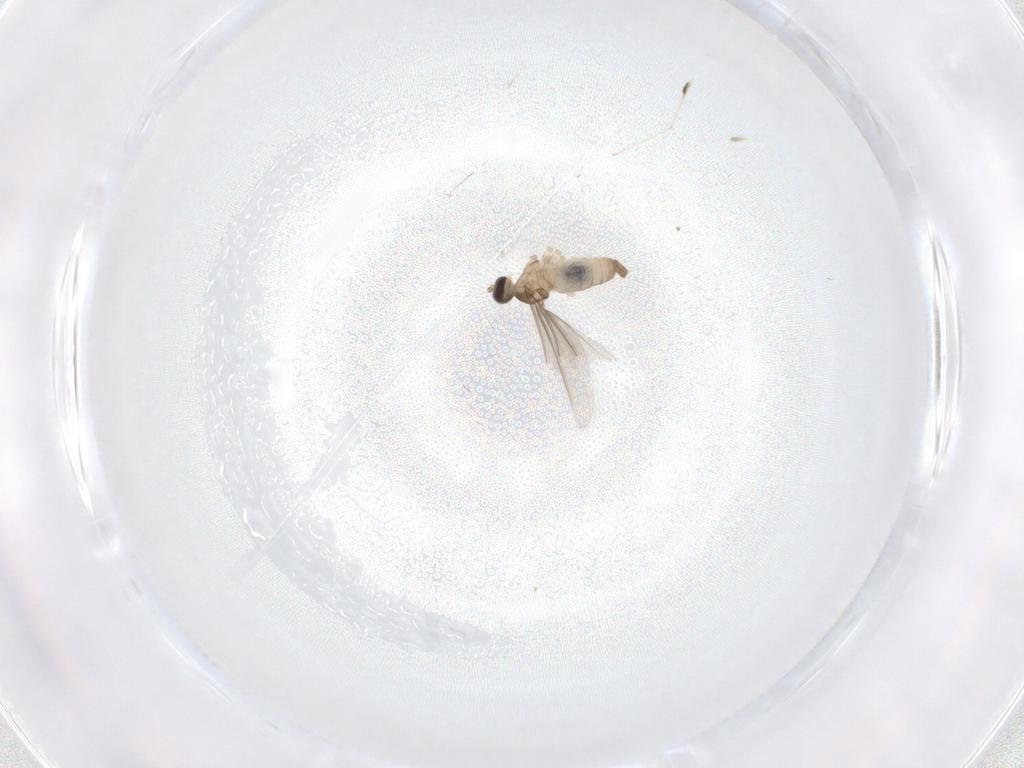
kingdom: Animalia
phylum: Arthropoda
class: Insecta
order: Diptera
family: Cecidomyiidae
